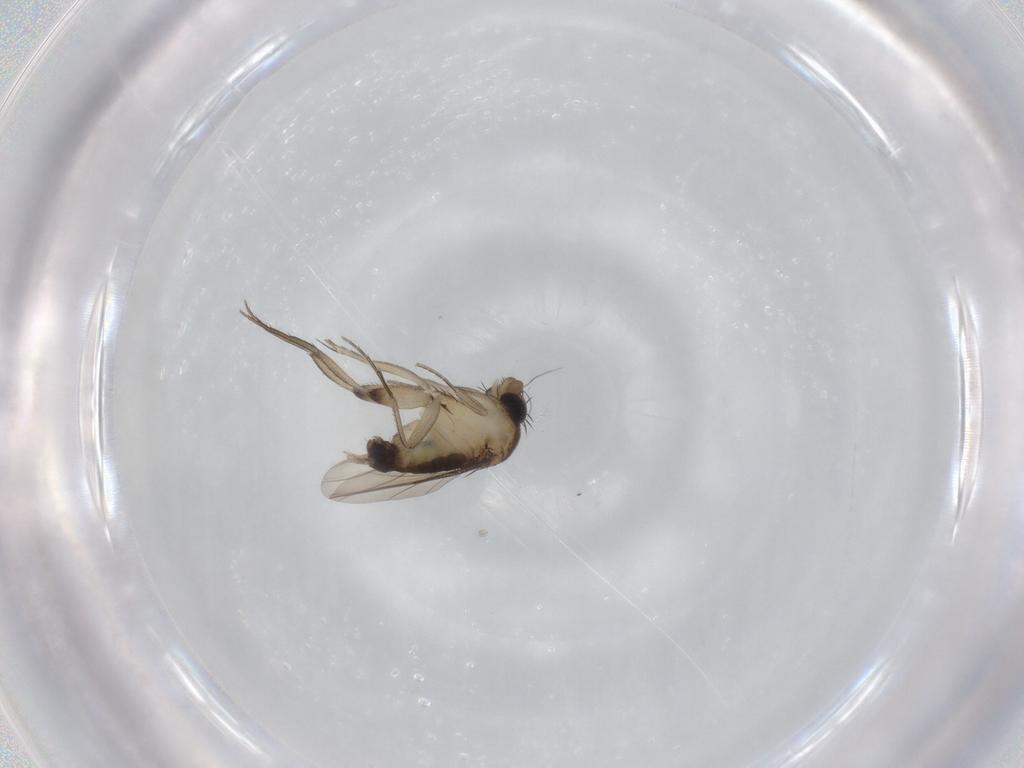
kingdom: Animalia
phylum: Arthropoda
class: Insecta
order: Diptera
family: Phoridae
